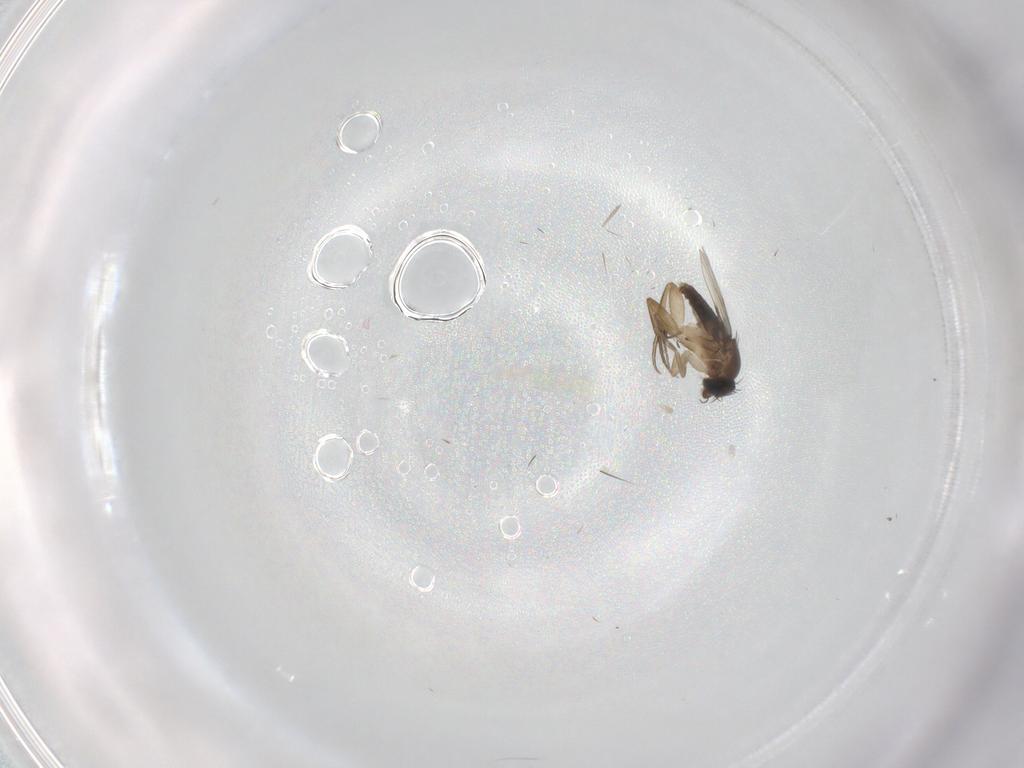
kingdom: Animalia
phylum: Arthropoda
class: Insecta
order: Diptera
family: Phoridae
